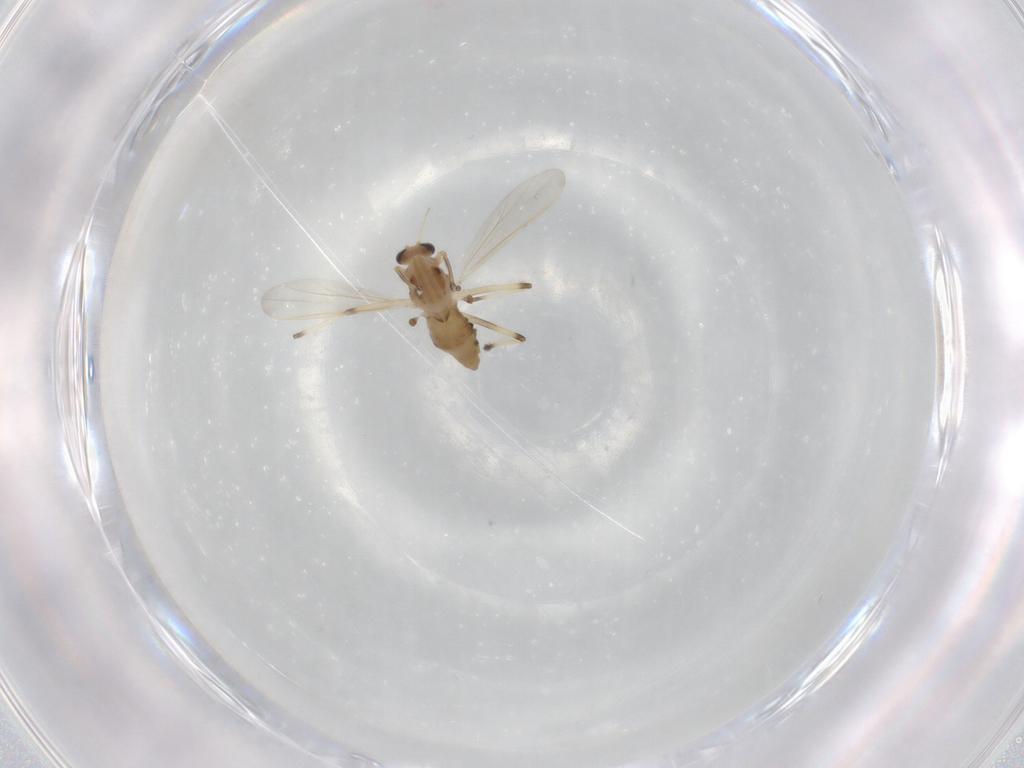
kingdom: Animalia
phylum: Arthropoda
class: Insecta
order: Diptera
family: Chironomidae
